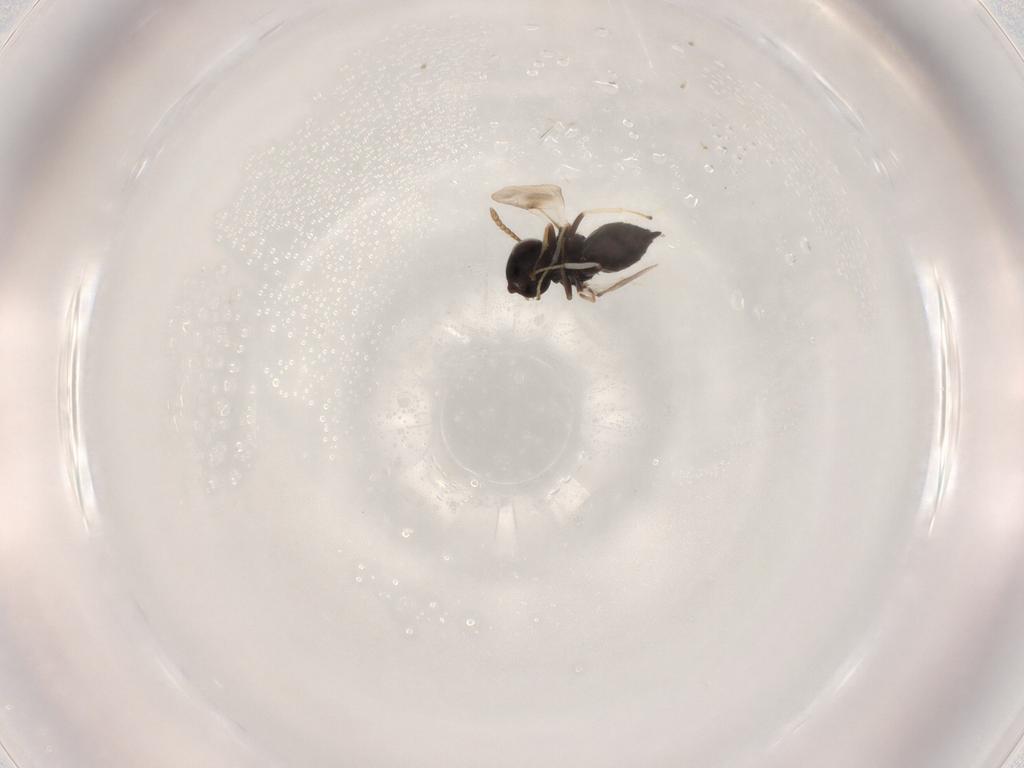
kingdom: Animalia
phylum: Arthropoda
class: Insecta
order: Hymenoptera
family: Pteromalidae
